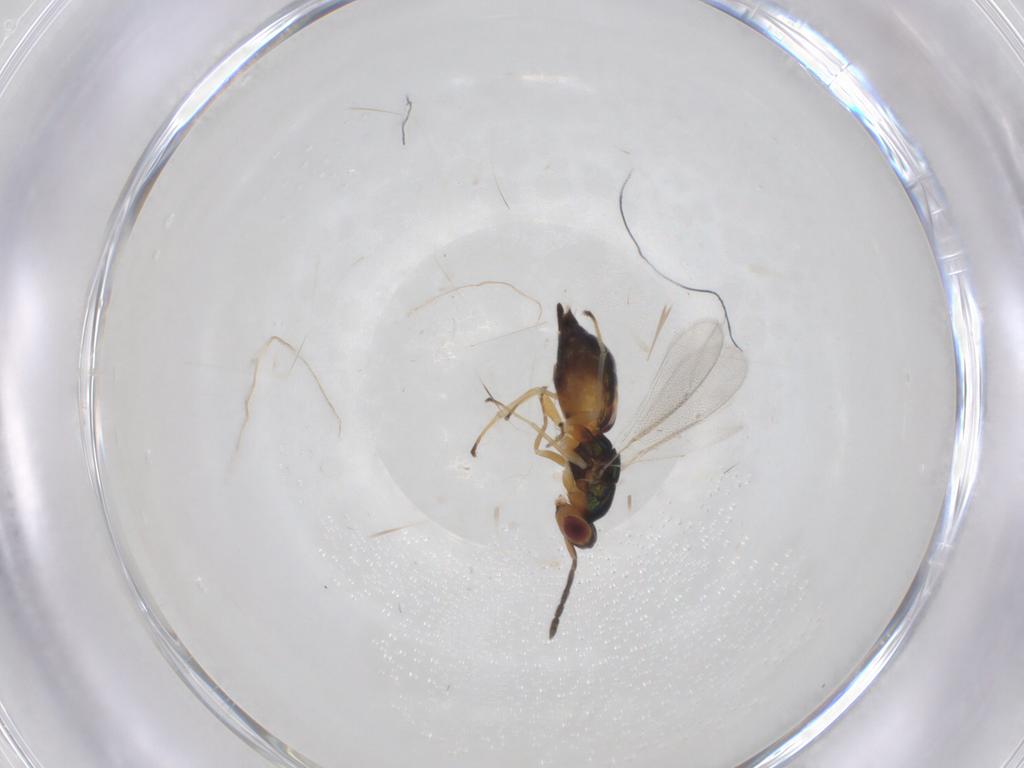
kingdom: Animalia
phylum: Arthropoda
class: Insecta
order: Hymenoptera
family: Eulophidae
